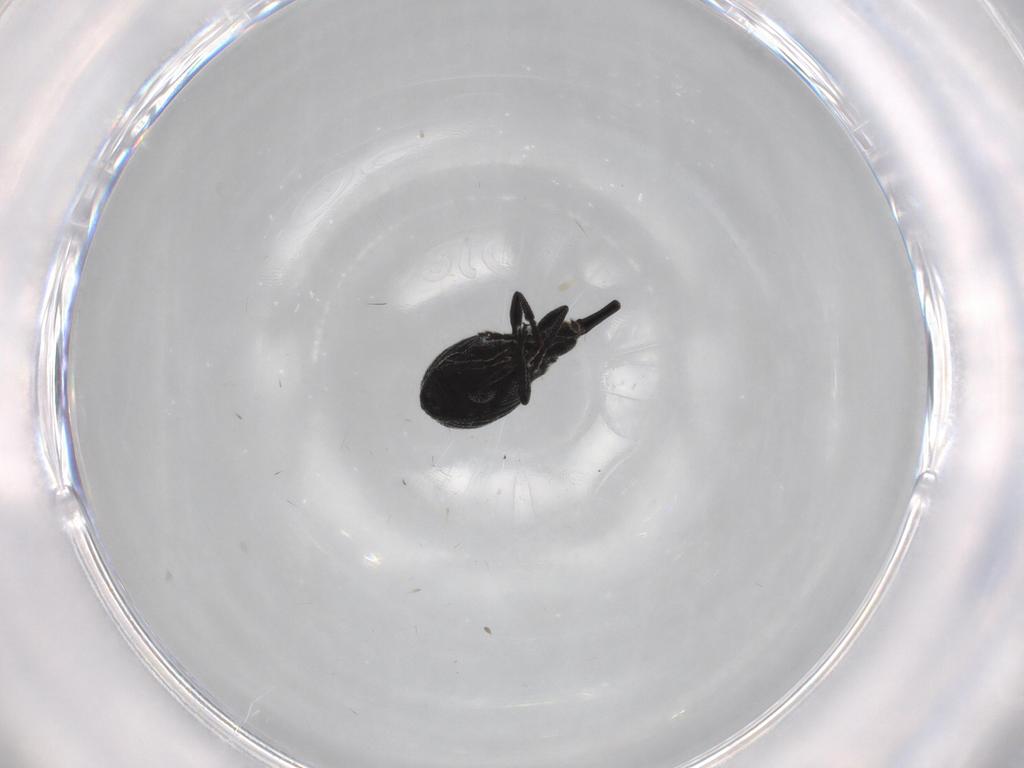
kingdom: Animalia
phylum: Arthropoda
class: Insecta
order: Coleoptera
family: Brentidae
